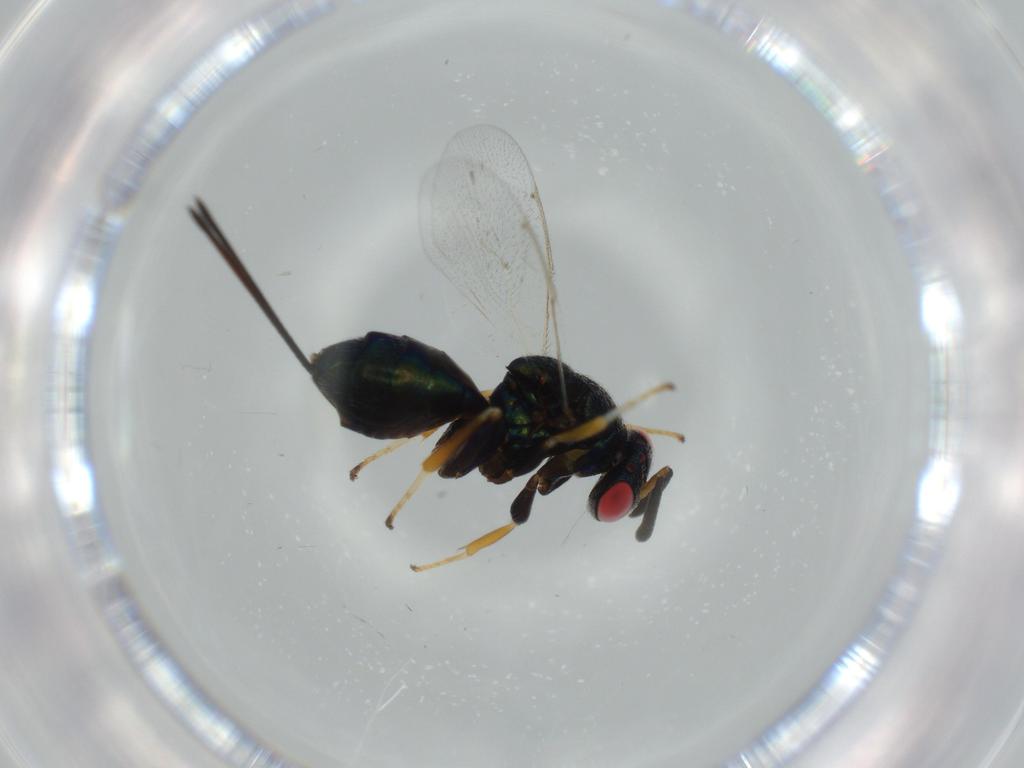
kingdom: Animalia
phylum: Arthropoda
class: Insecta
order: Hymenoptera
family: Torymidae
